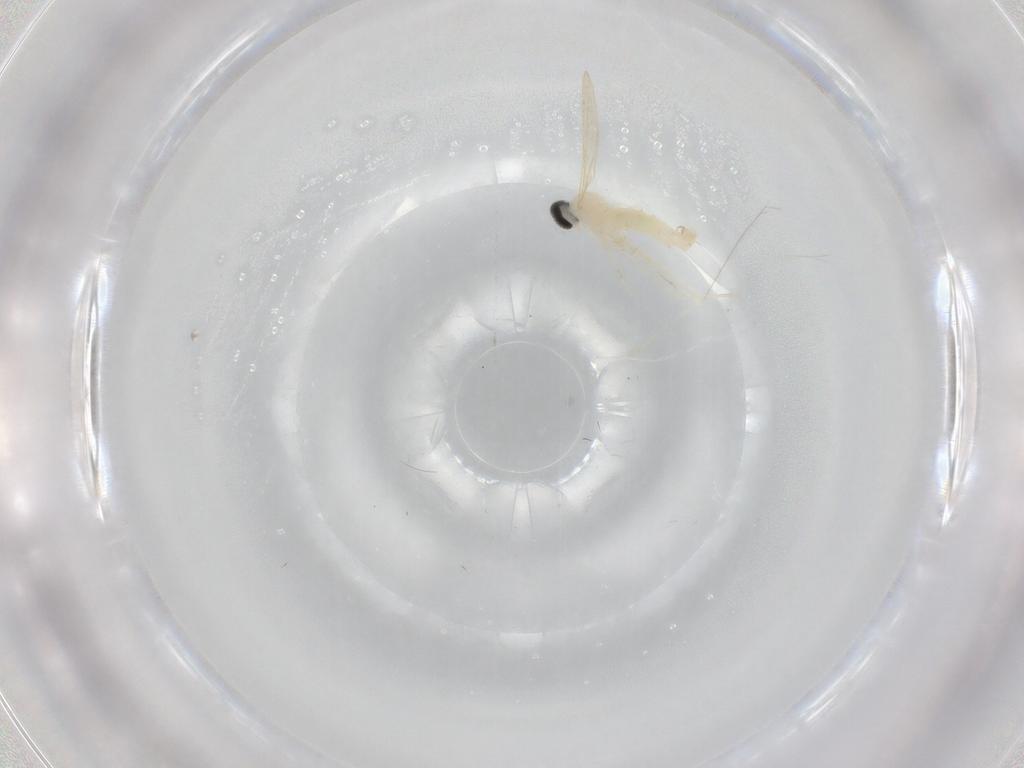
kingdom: Animalia
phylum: Arthropoda
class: Insecta
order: Diptera
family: Cecidomyiidae
